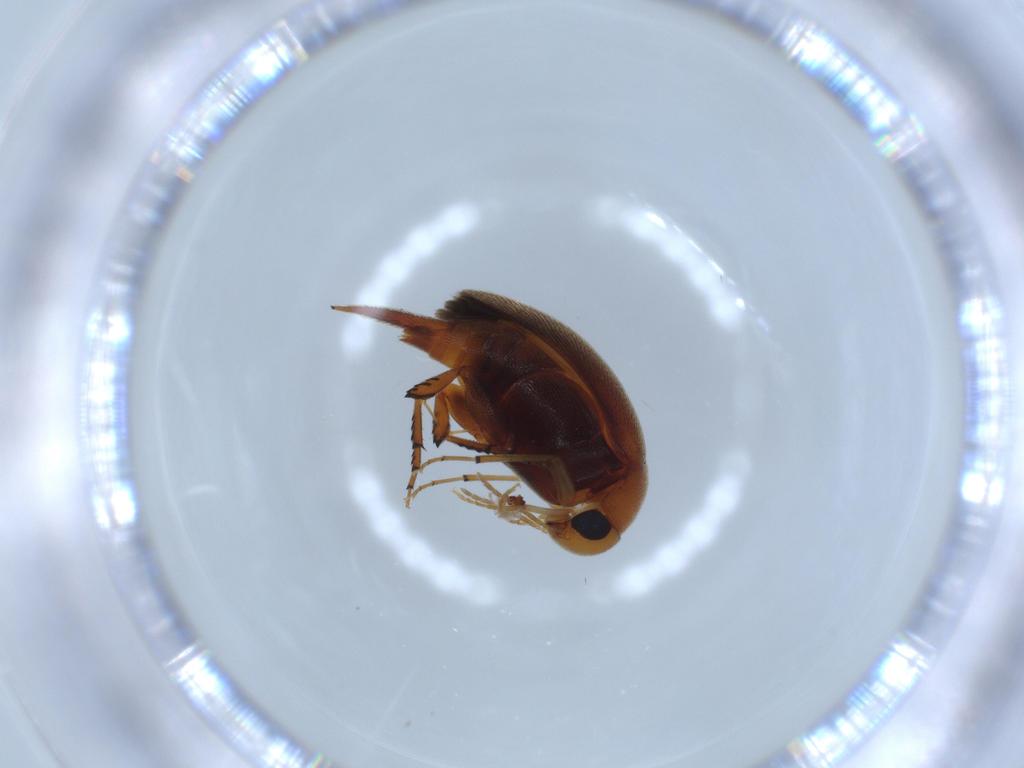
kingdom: Animalia
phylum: Arthropoda
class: Insecta
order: Coleoptera
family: Mordellidae
